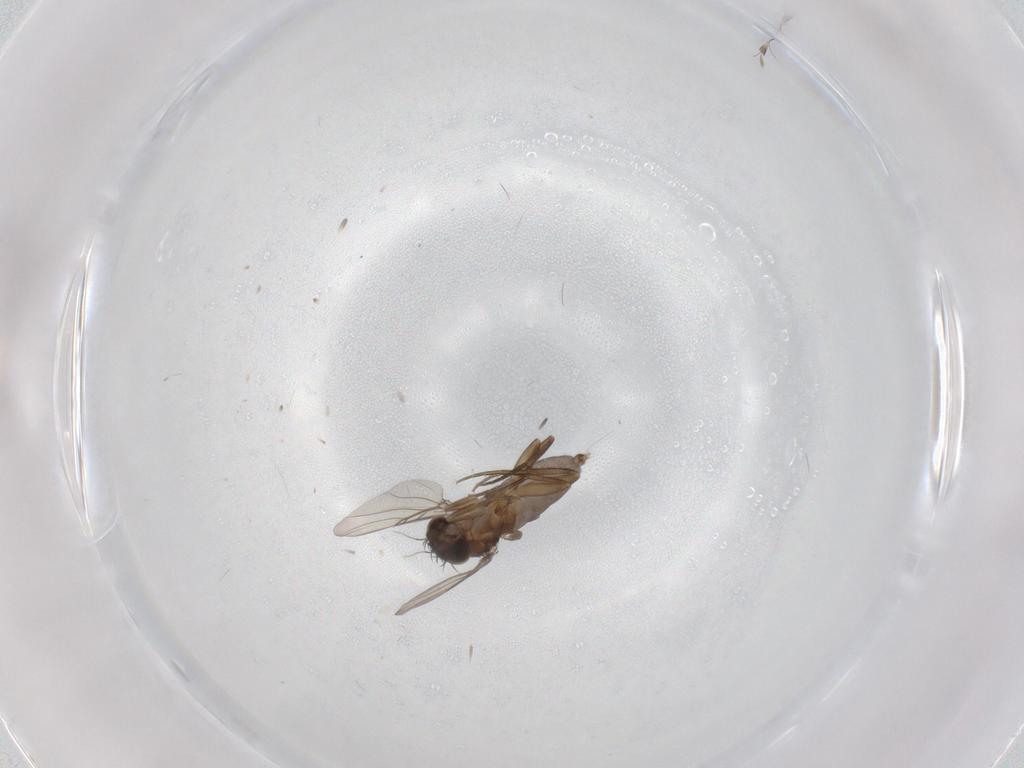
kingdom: Animalia
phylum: Arthropoda
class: Insecta
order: Diptera
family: Phoridae
